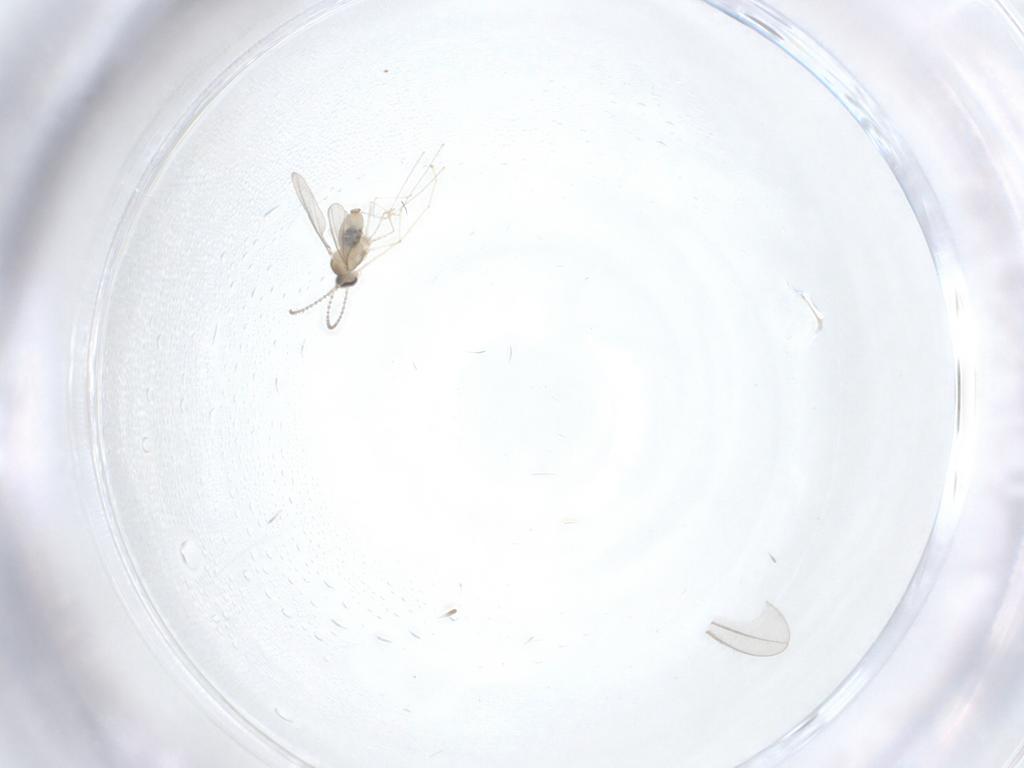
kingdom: Animalia
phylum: Arthropoda
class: Insecta
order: Diptera
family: Cecidomyiidae
